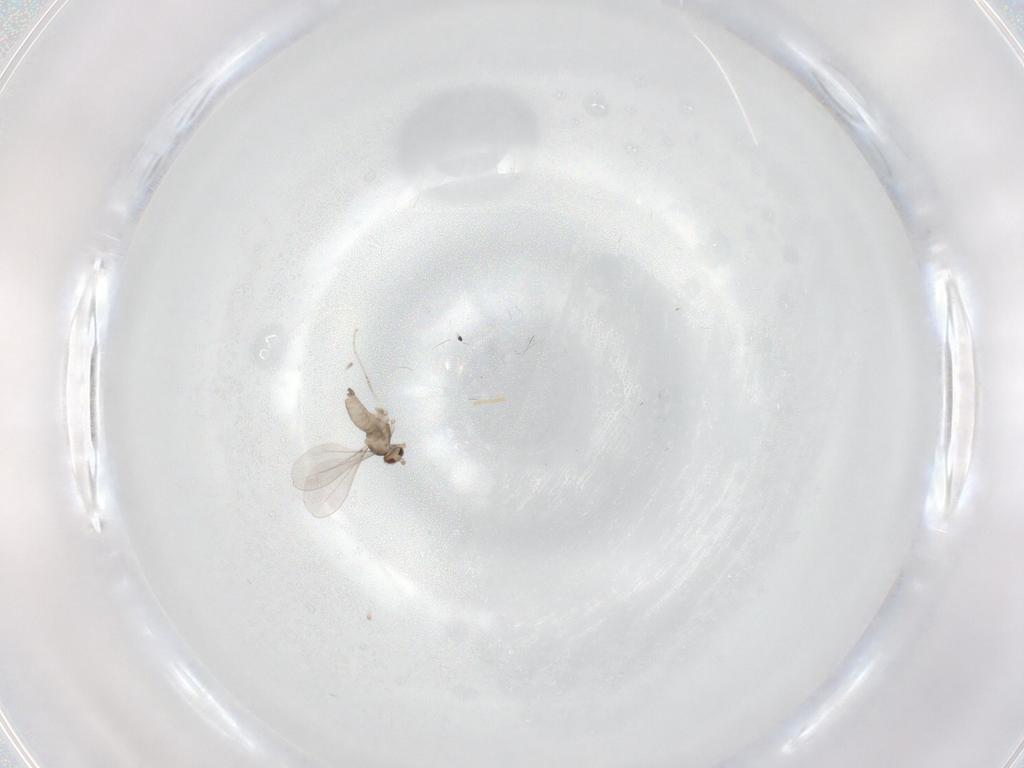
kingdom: Animalia
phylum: Arthropoda
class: Insecta
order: Diptera
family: Cecidomyiidae
